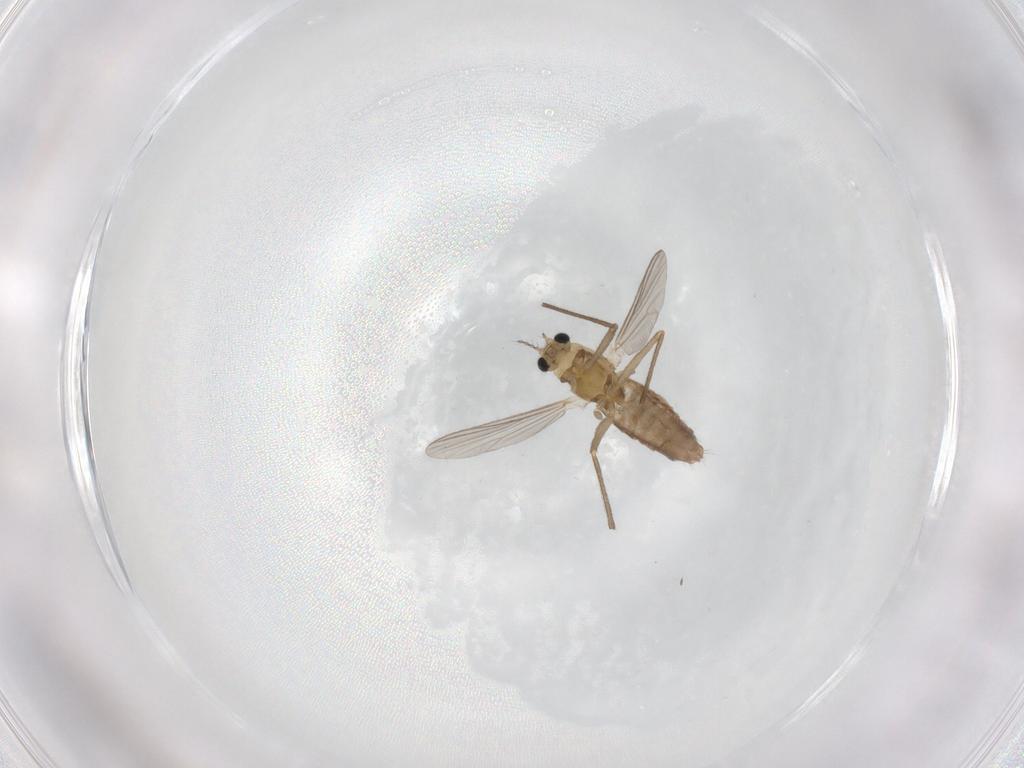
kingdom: Animalia
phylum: Arthropoda
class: Insecta
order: Diptera
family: Chironomidae
